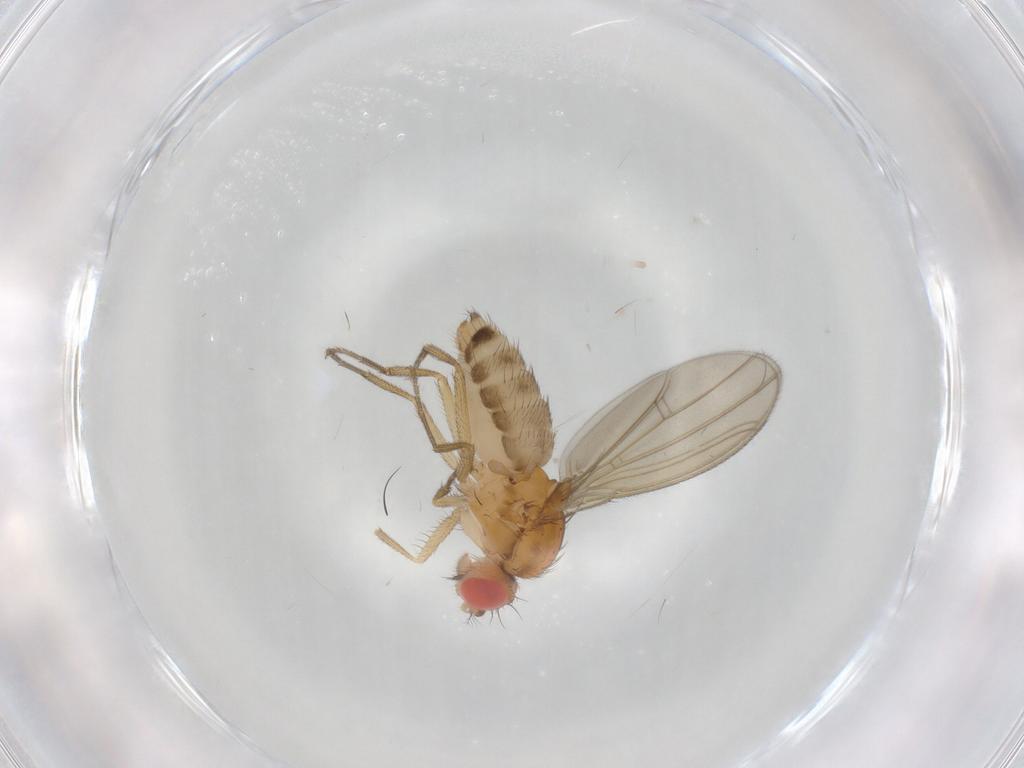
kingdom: Animalia
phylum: Arthropoda
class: Insecta
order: Diptera
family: Drosophilidae
